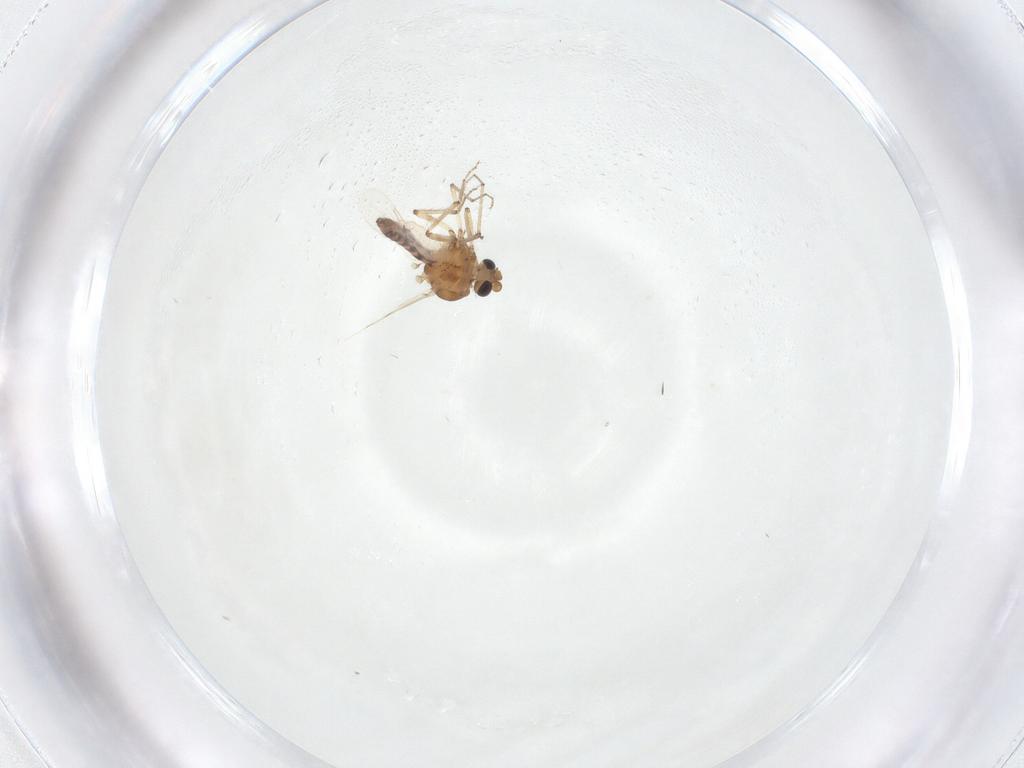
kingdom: Animalia
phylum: Arthropoda
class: Insecta
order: Diptera
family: Ceratopogonidae
